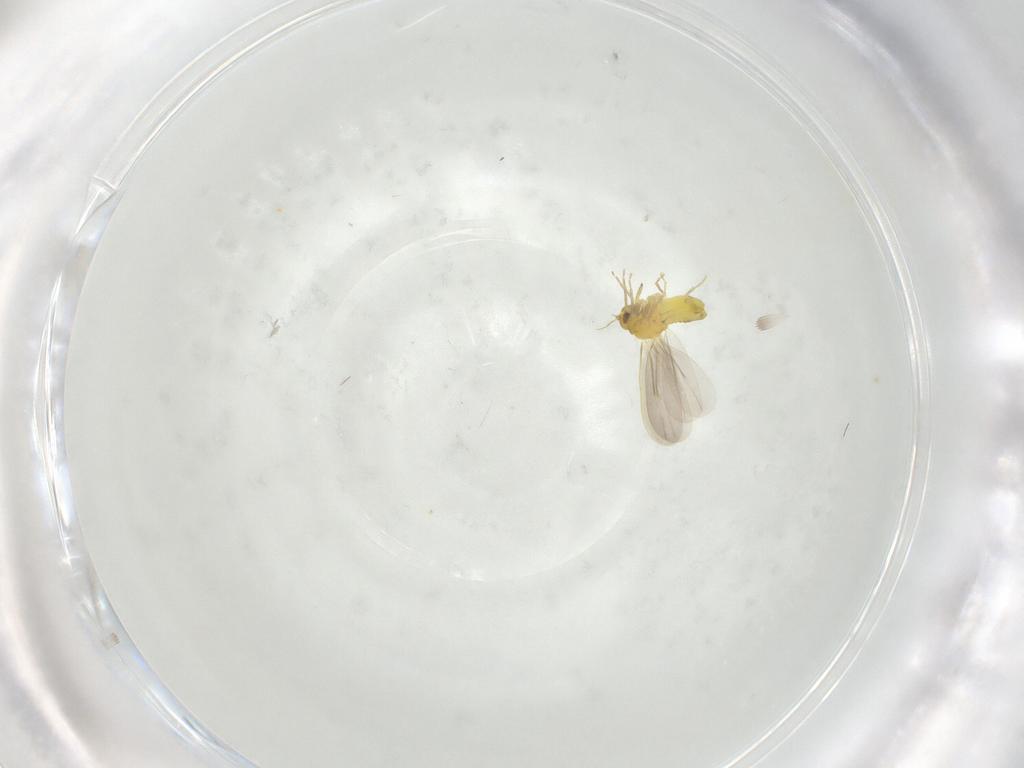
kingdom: Animalia
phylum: Arthropoda
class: Insecta
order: Hemiptera
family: Aleyrodidae
